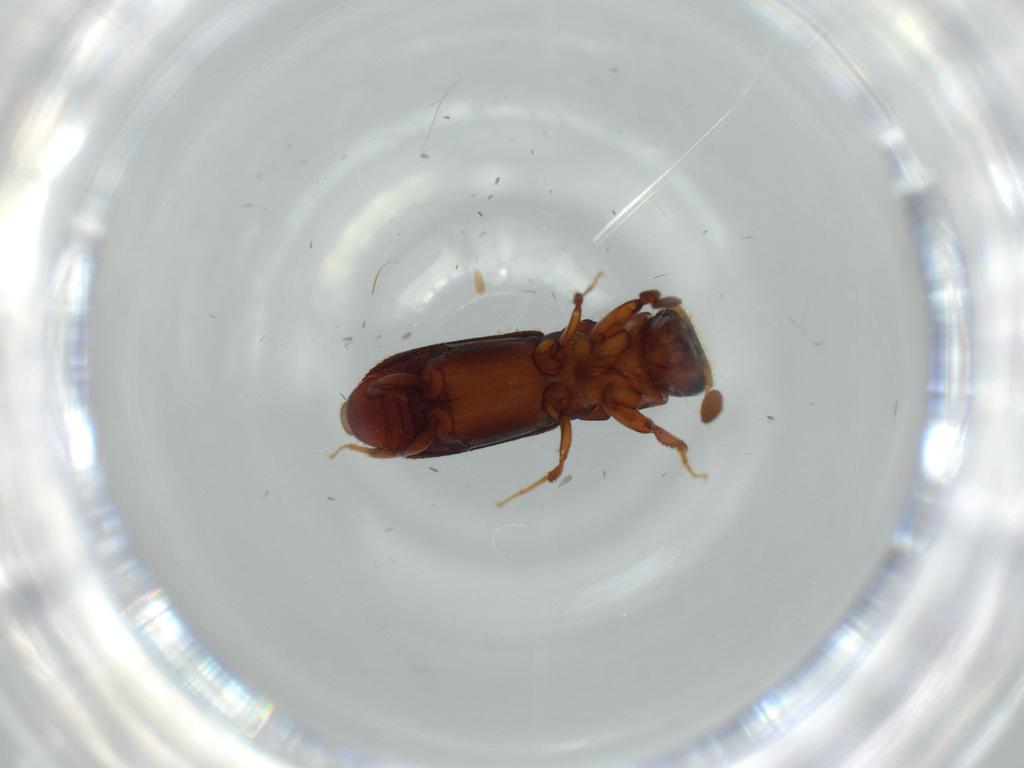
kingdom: Animalia
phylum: Arthropoda
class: Insecta
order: Coleoptera
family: Curculionidae
